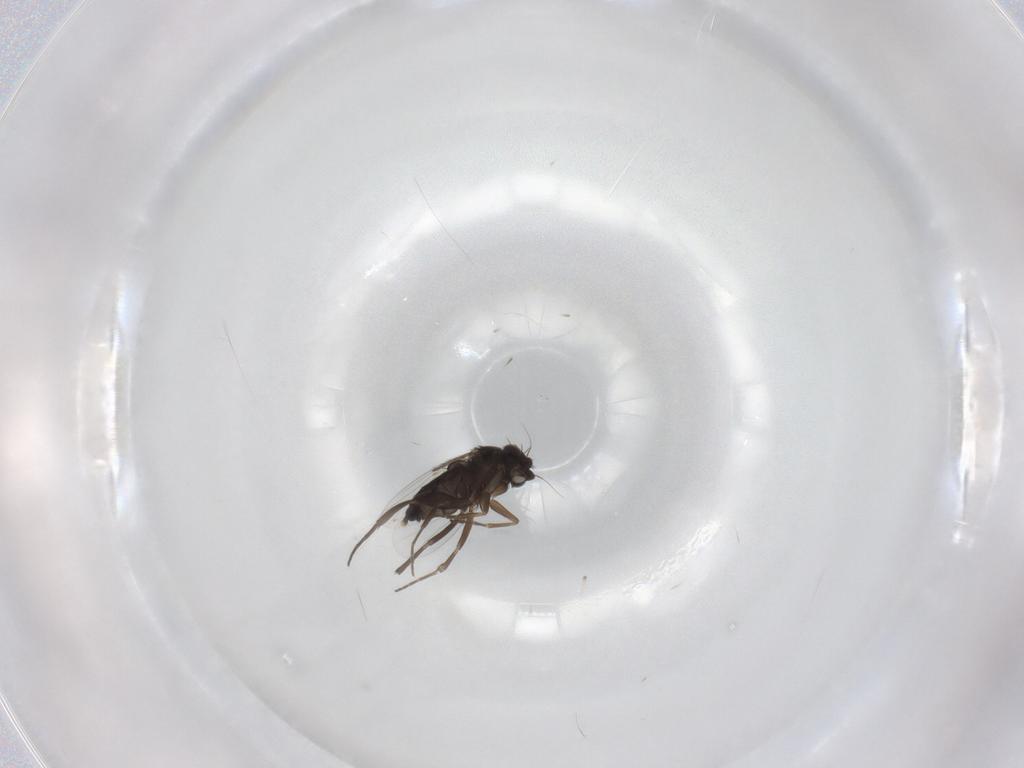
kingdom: Animalia
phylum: Arthropoda
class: Insecta
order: Diptera
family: Phoridae
